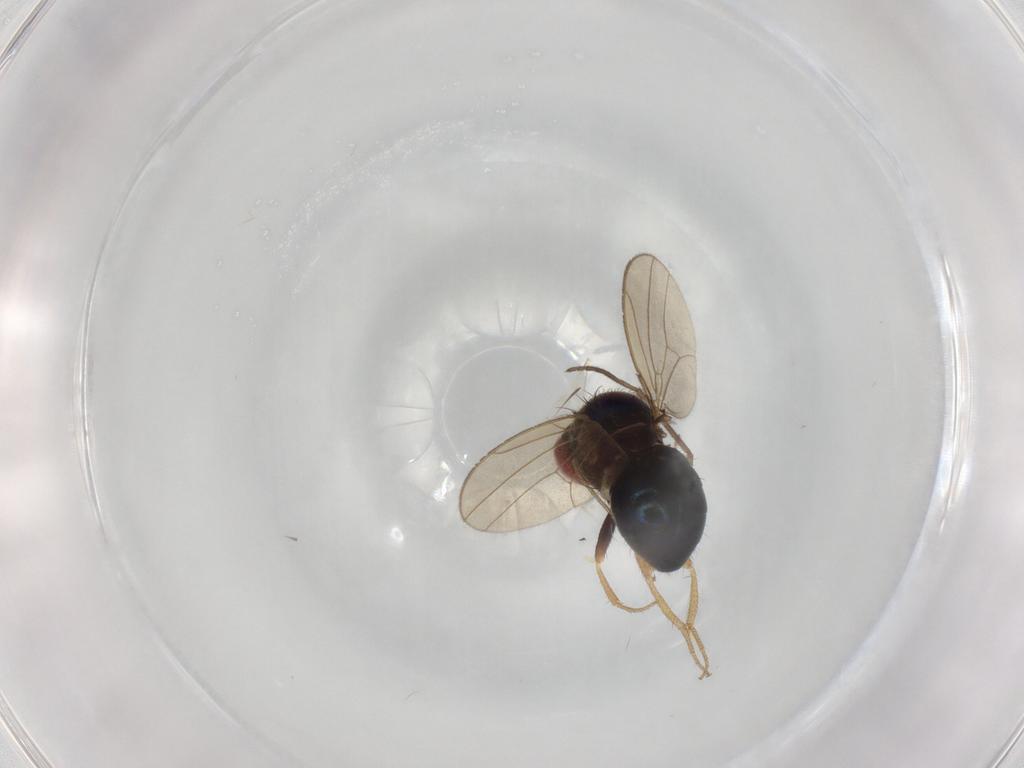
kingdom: Animalia
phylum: Arthropoda
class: Insecta
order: Diptera
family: Drosophilidae
